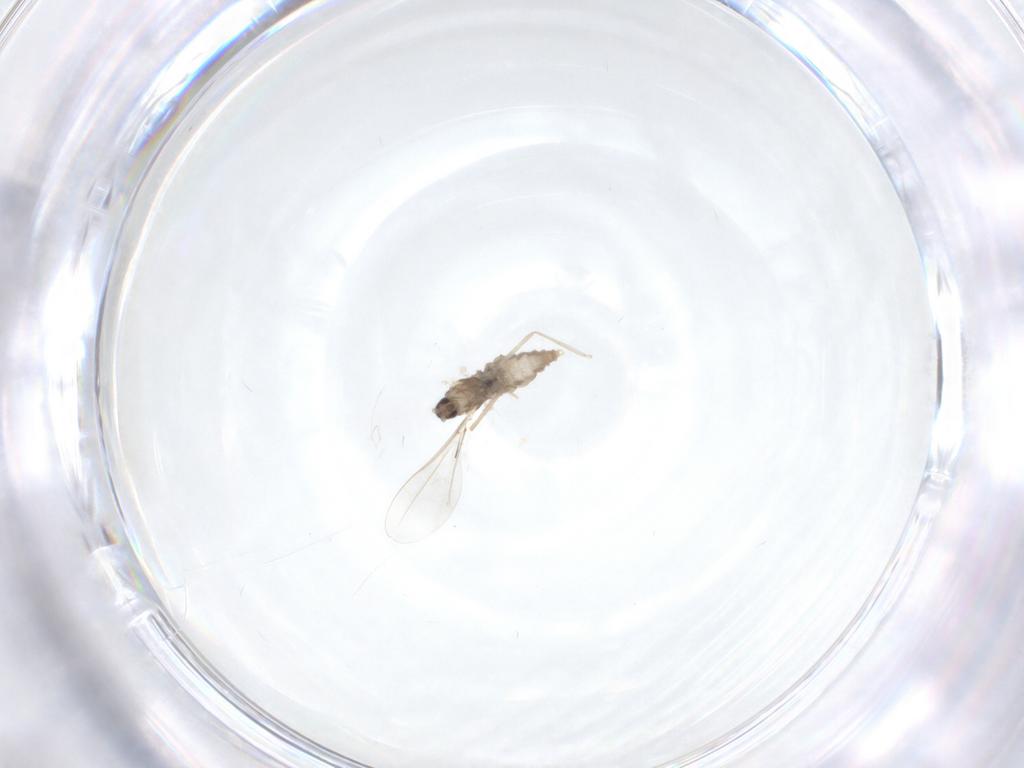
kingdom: Animalia
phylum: Arthropoda
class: Insecta
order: Diptera
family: Cecidomyiidae
